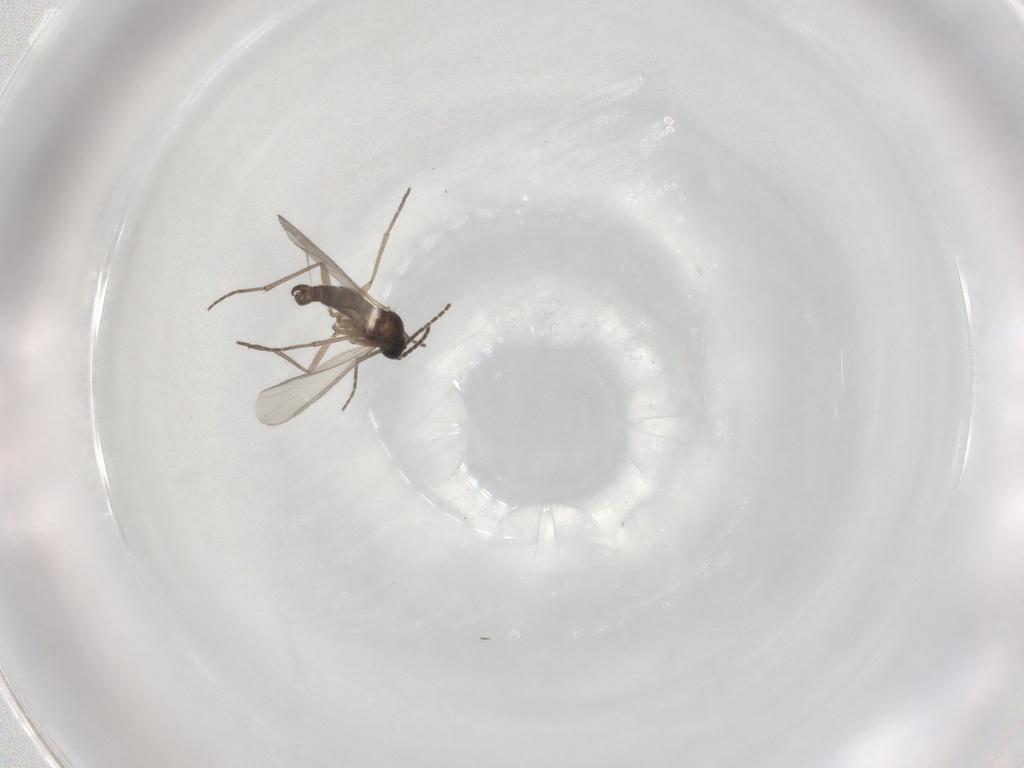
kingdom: Animalia
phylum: Arthropoda
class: Insecta
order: Diptera
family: Sciaridae
